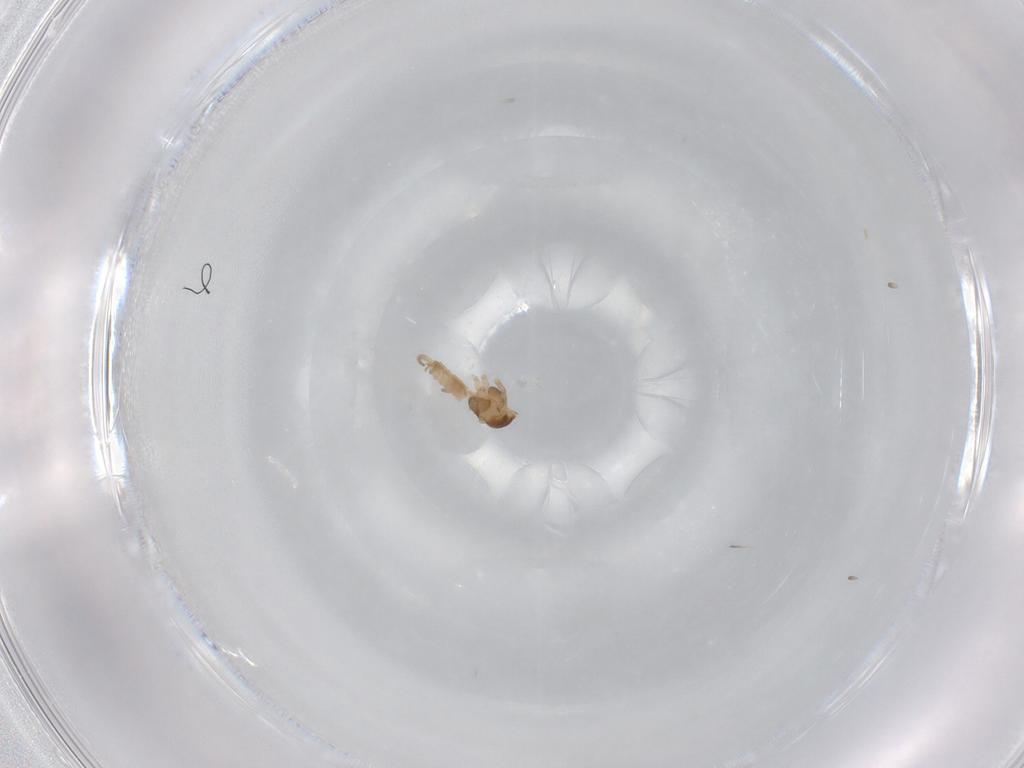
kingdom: Animalia
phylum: Arthropoda
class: Insecta
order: Diptera
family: Cecidomyiidae
